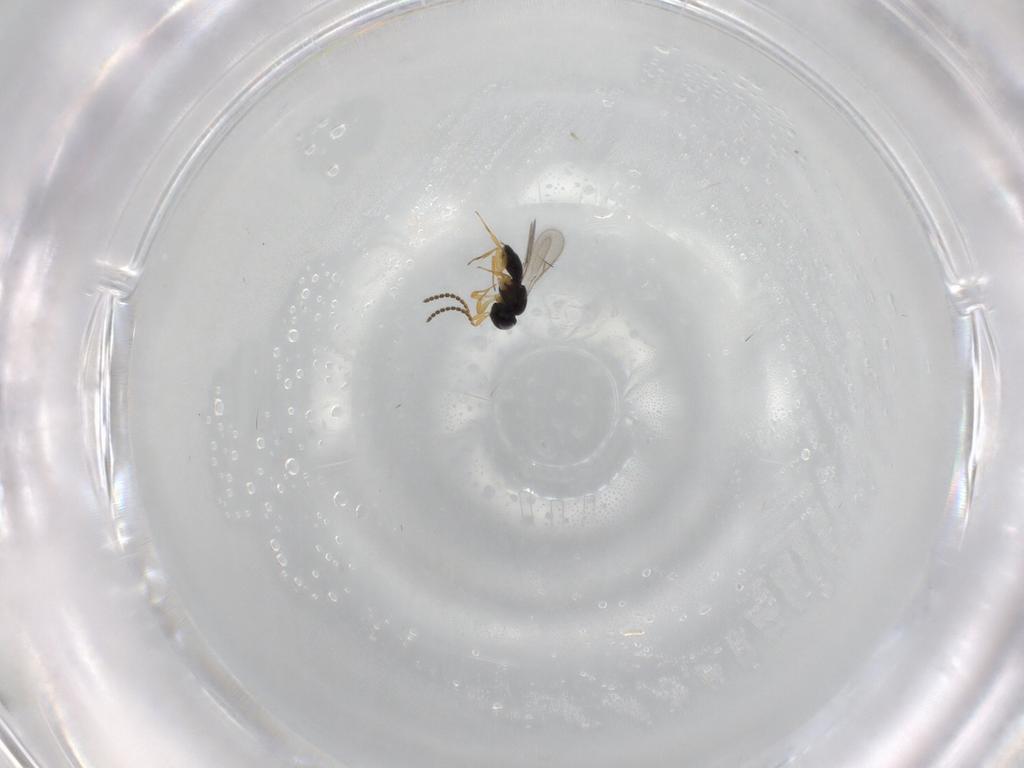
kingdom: Animalia
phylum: Arthropoda
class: Insecta
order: Hymenoptera
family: Scelionidae
